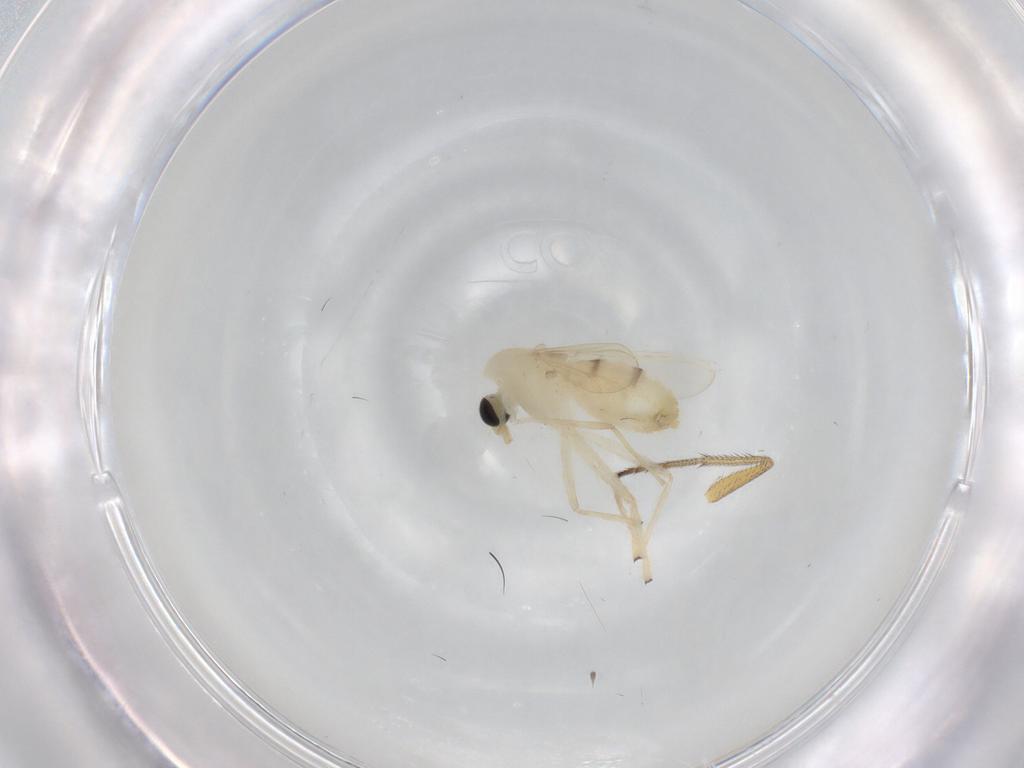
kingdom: Animalia
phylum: Arthropoda
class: Insecta
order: Diptera
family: Chironomidae
